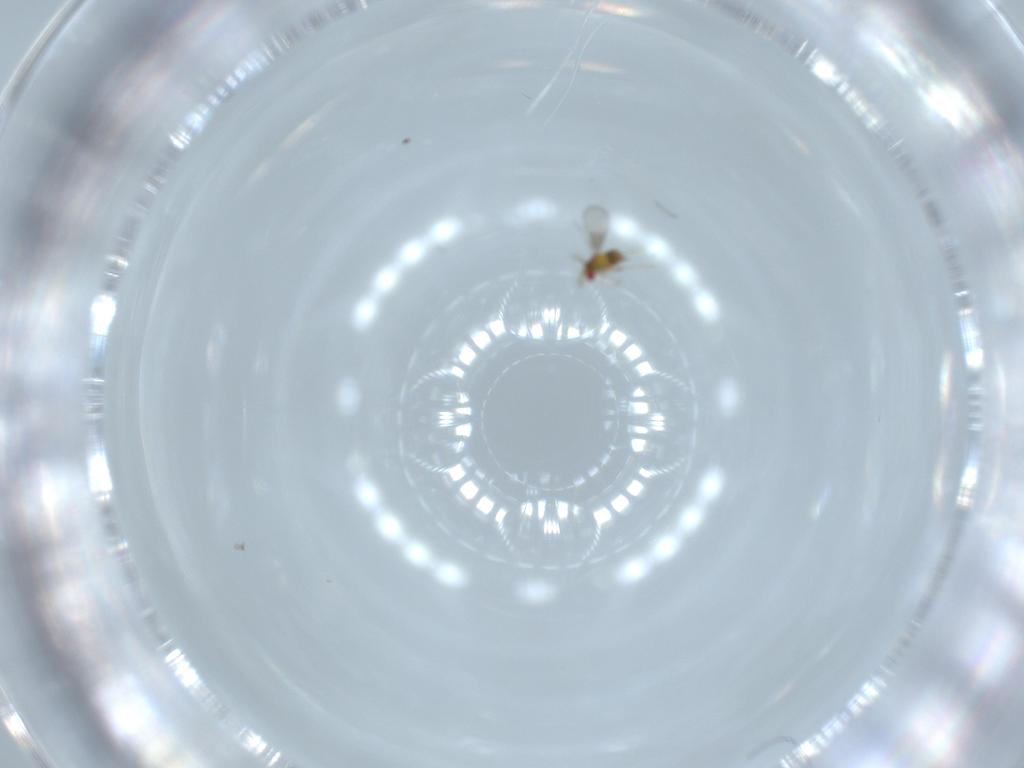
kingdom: Animalia
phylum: Arthropoda
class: Insecta
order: Hymenoptera
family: Trichogrammatidae
